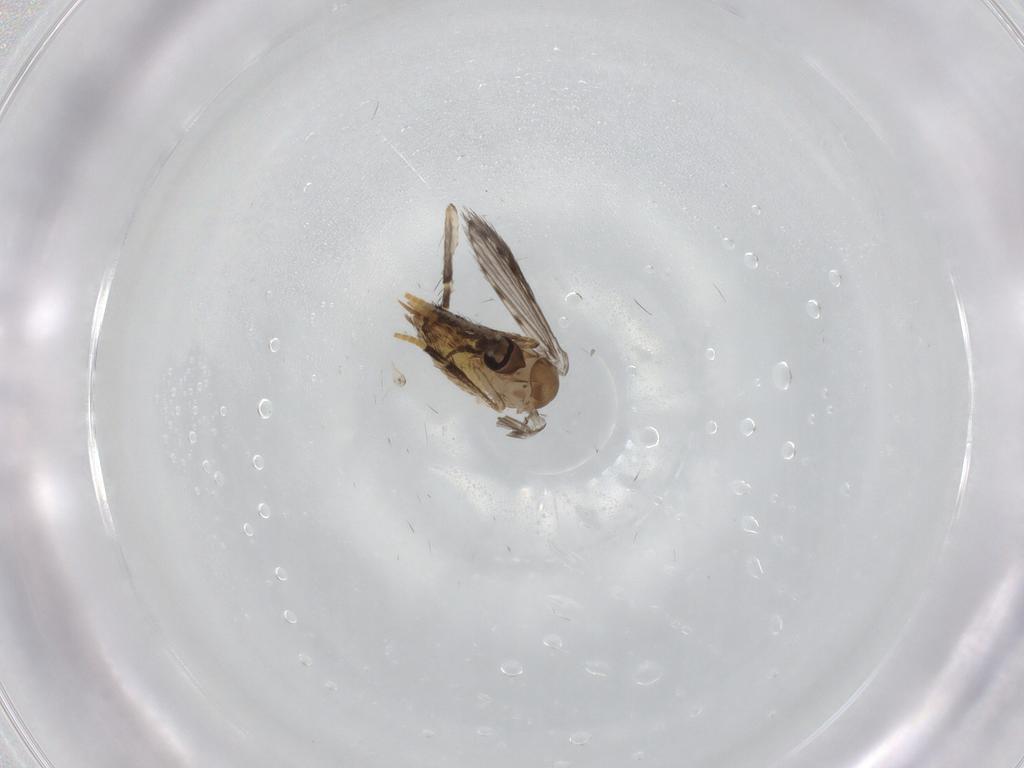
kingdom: Animalia
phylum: Arthropoda
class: Insecta
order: Diptera
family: Psychodidae
